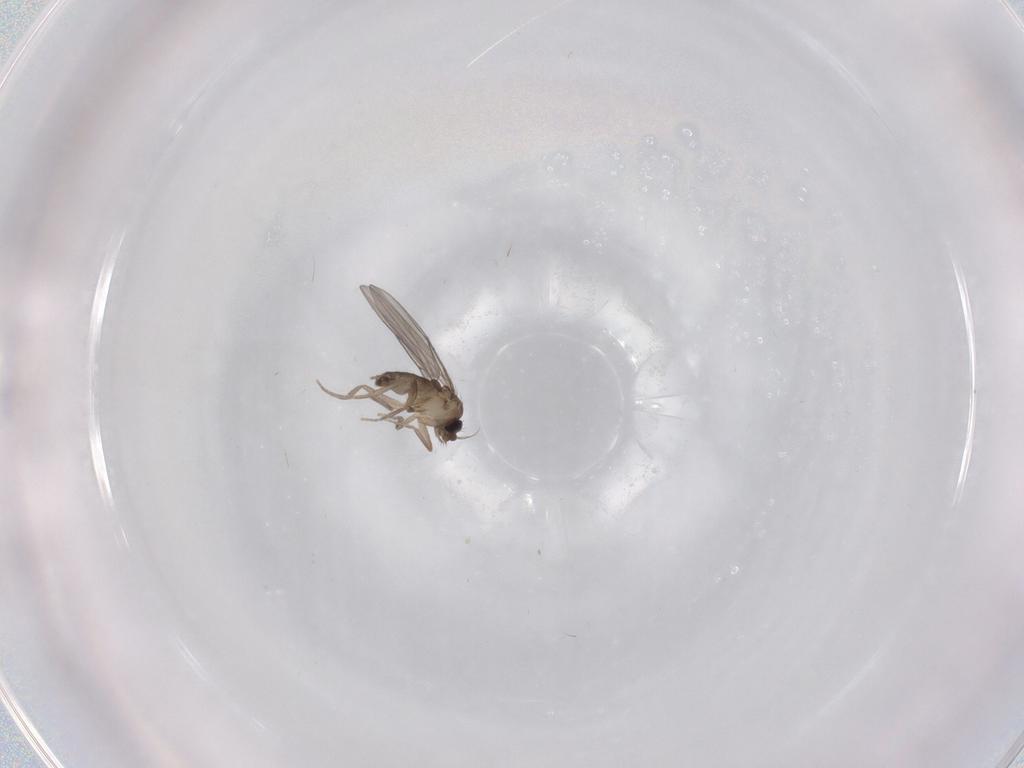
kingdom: Animalia
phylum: Arthropoda
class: Insecta
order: Diptera
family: Phoridae
